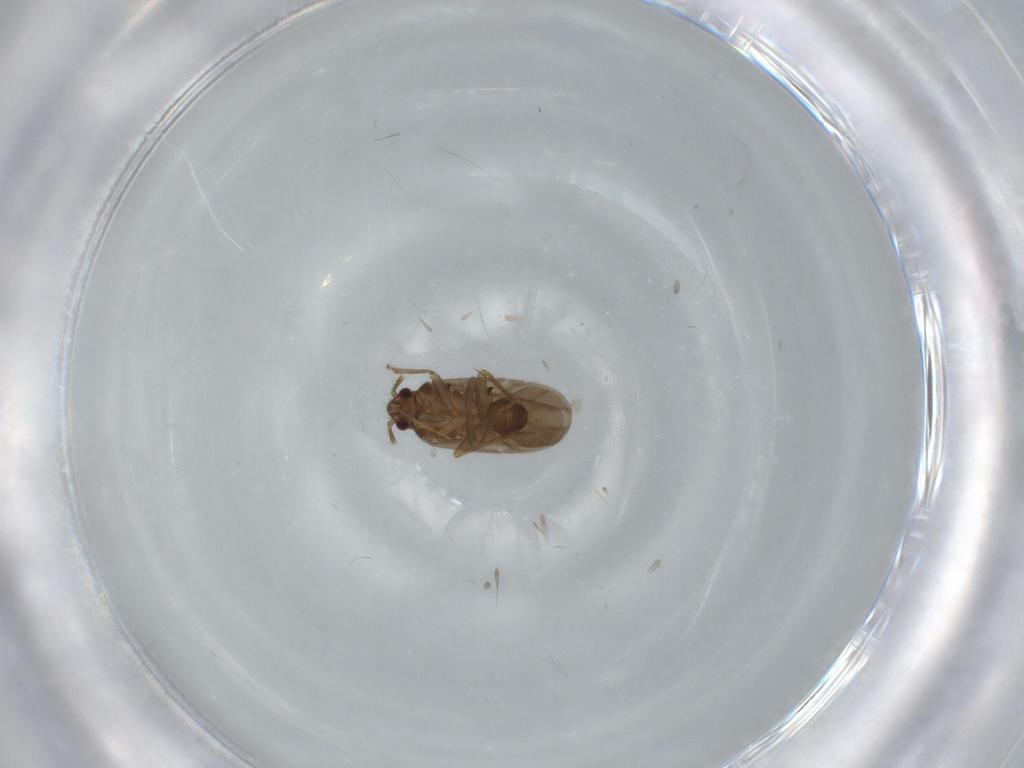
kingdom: Animalia
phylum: Arthropoda
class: Insecta
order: Hemiptera
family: Ceratocombidae
